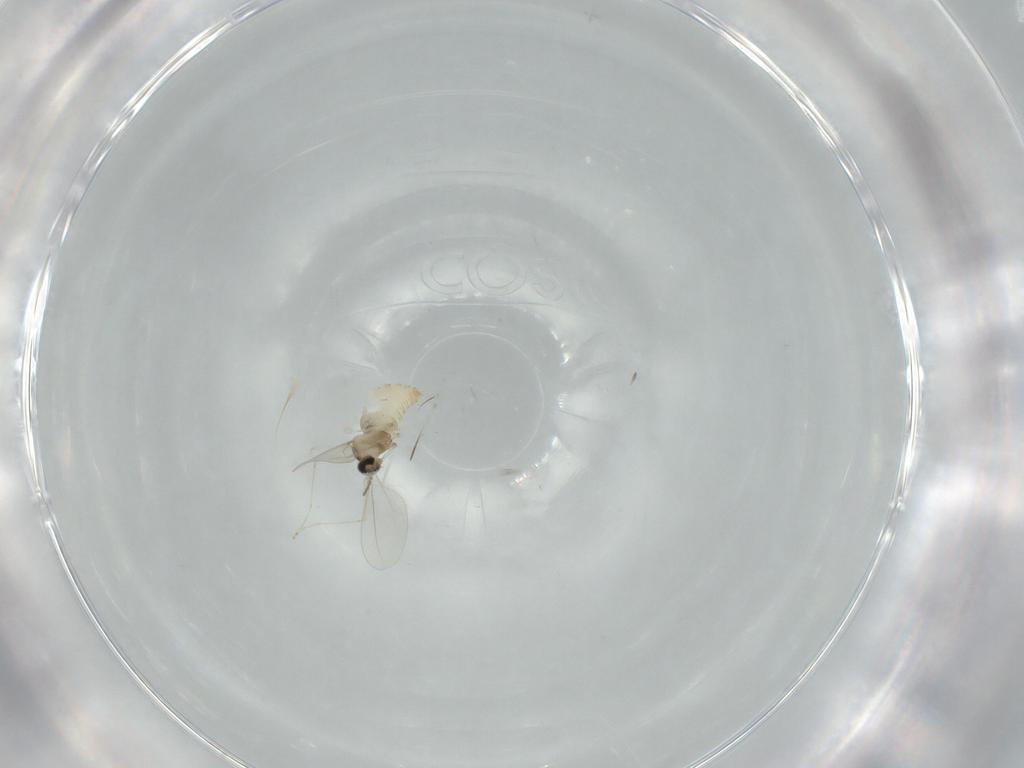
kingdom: Animalia
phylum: Arthropoda
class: Insecta
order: Diptera
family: Cecidomyiidae
